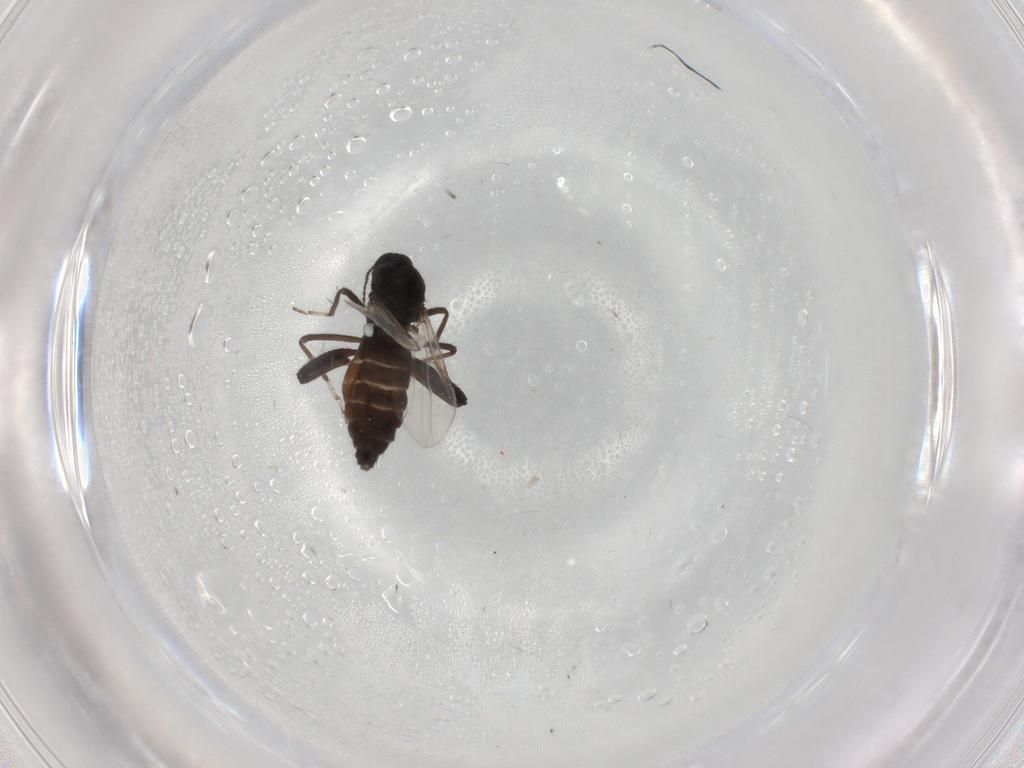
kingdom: Animalia
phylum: Arthropoda
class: Insecta
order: Diptera
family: Ceratopogonidae
